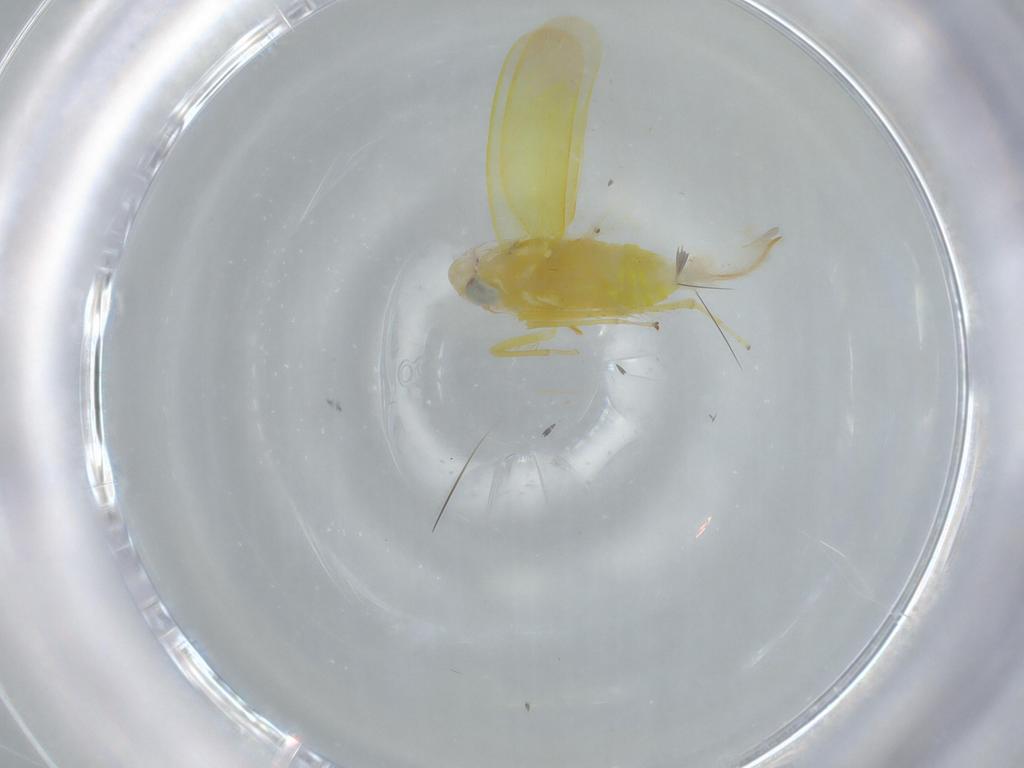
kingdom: Animalia
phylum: Arthropoda
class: Insecta
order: Hemiptera
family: Cicadellidae
